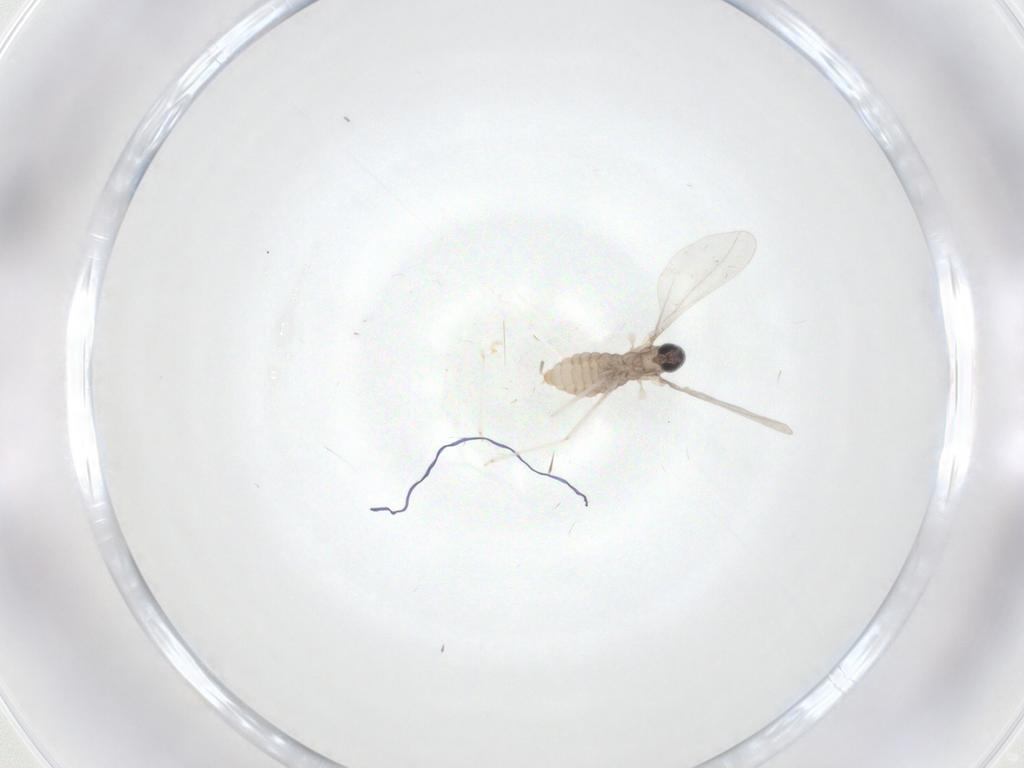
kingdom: Animalia
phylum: Arthropoda
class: Insecta
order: Diptera
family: Cecidomyiidae
